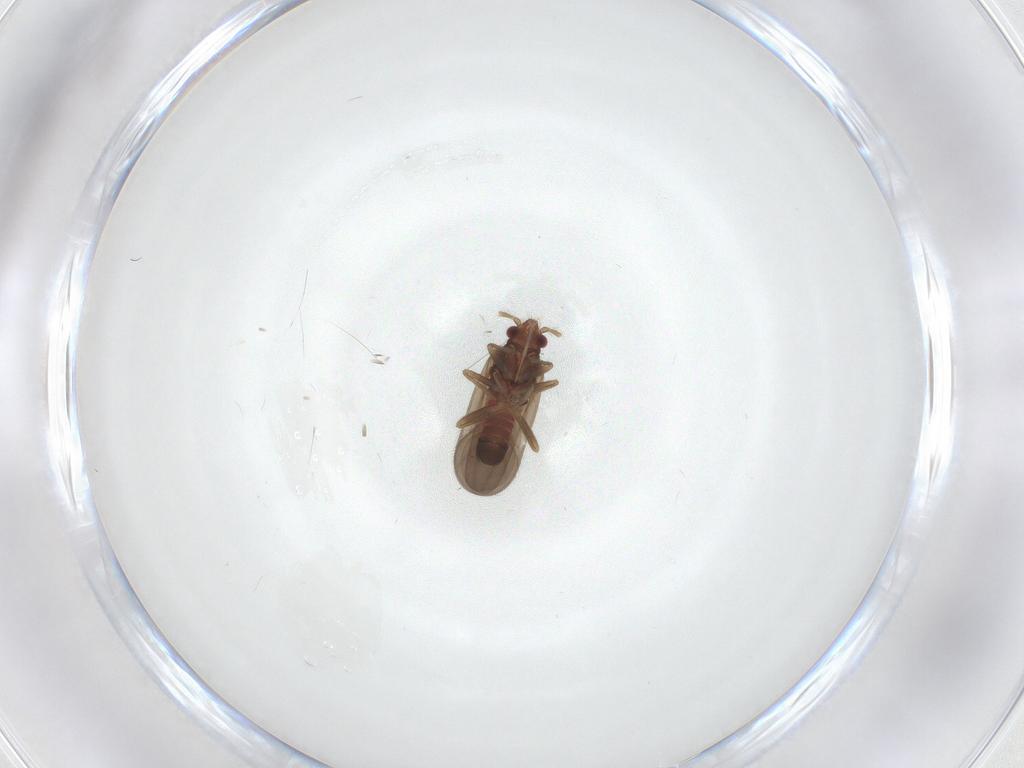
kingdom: Animalia
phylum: Arthropoda
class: Insecta
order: Hemiptera
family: Ceratocombidae
